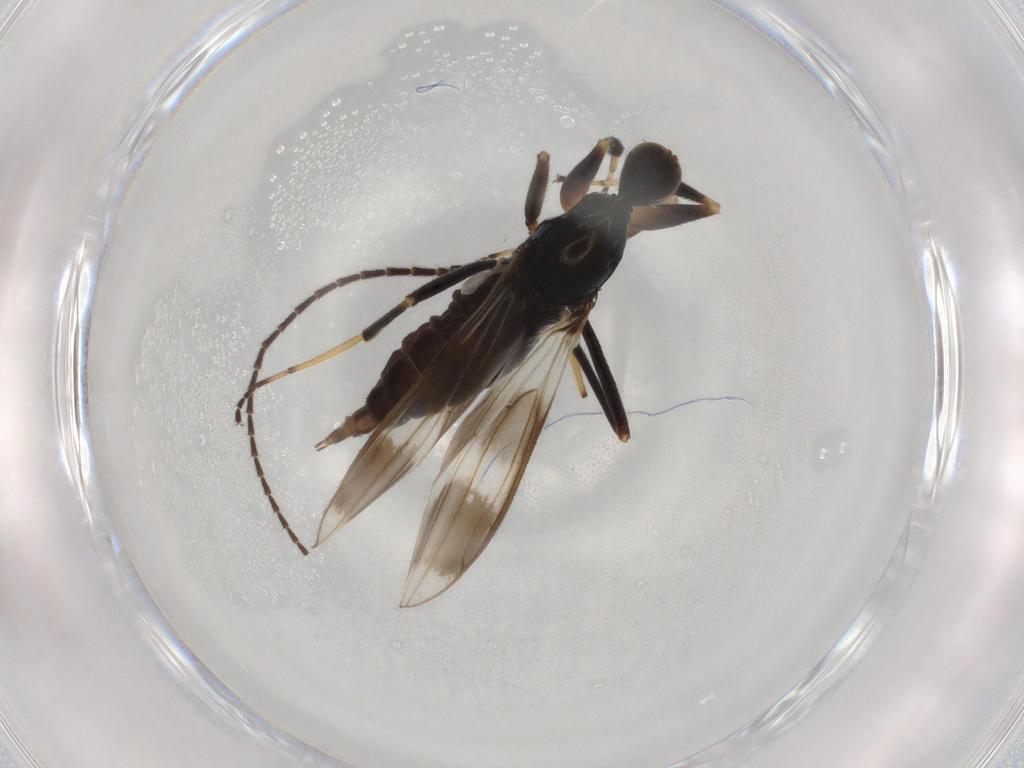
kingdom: Animalia
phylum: Arthropoda
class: Insecta
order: Diptera
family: Hybotidae
